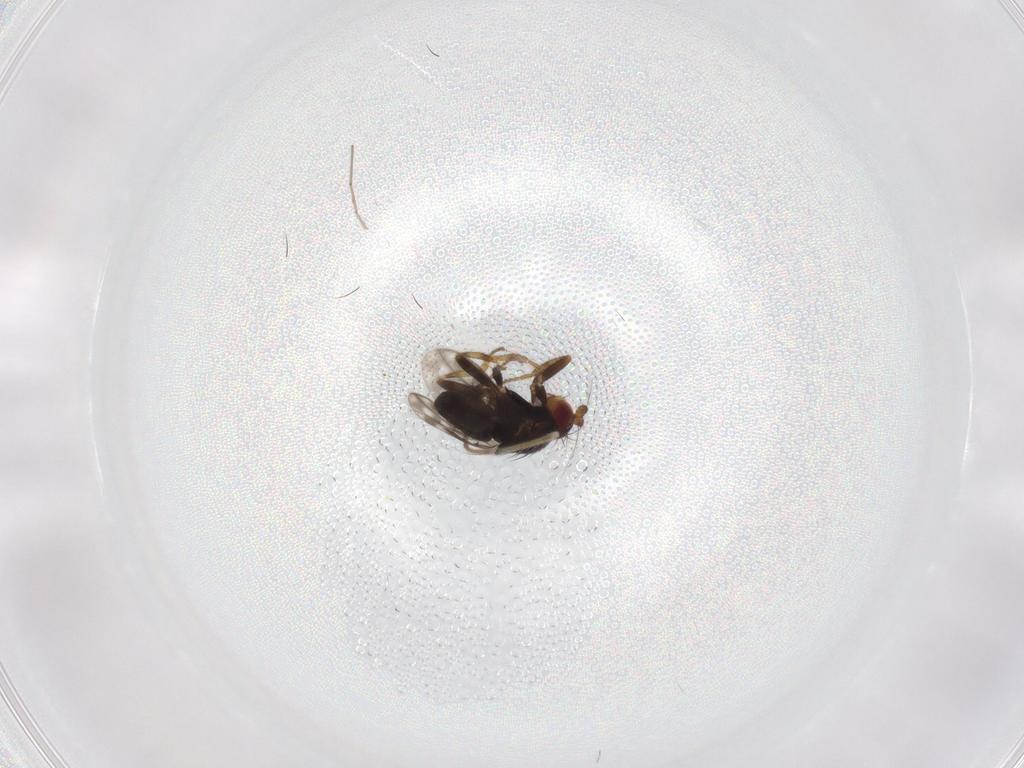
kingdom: Animalia
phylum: Arthropoda
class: Insecta
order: Diptera
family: Sphaeroceridae
